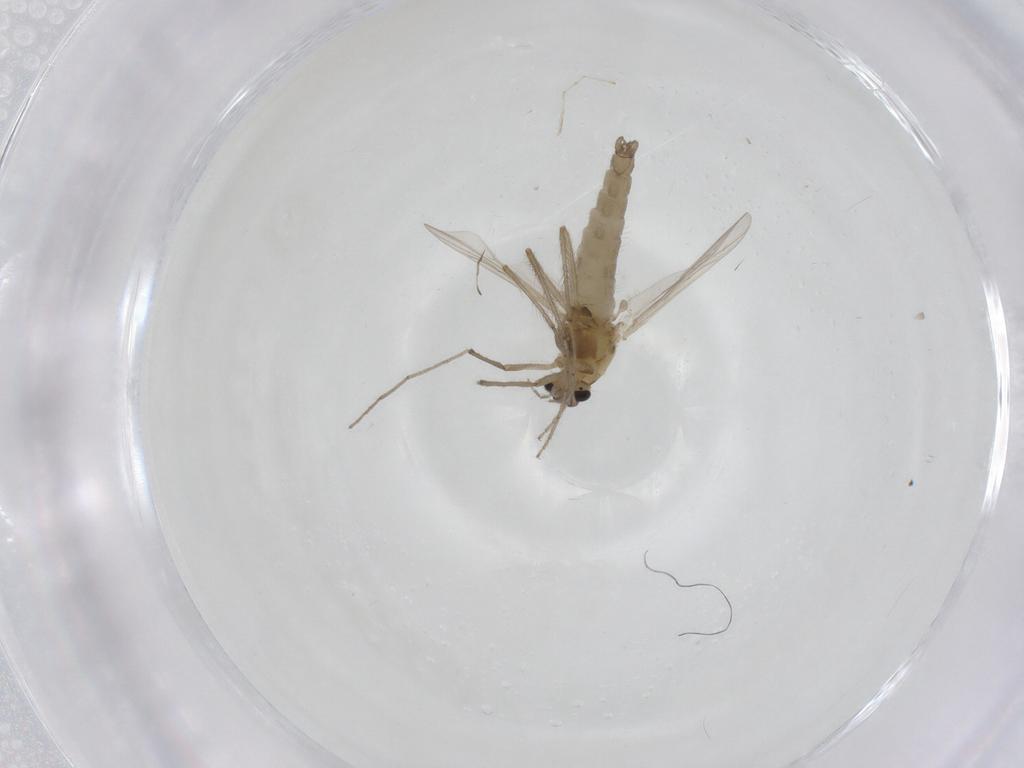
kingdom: Animalia
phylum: Arthropoda
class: Insecta
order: Diptera
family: Chironomidae
